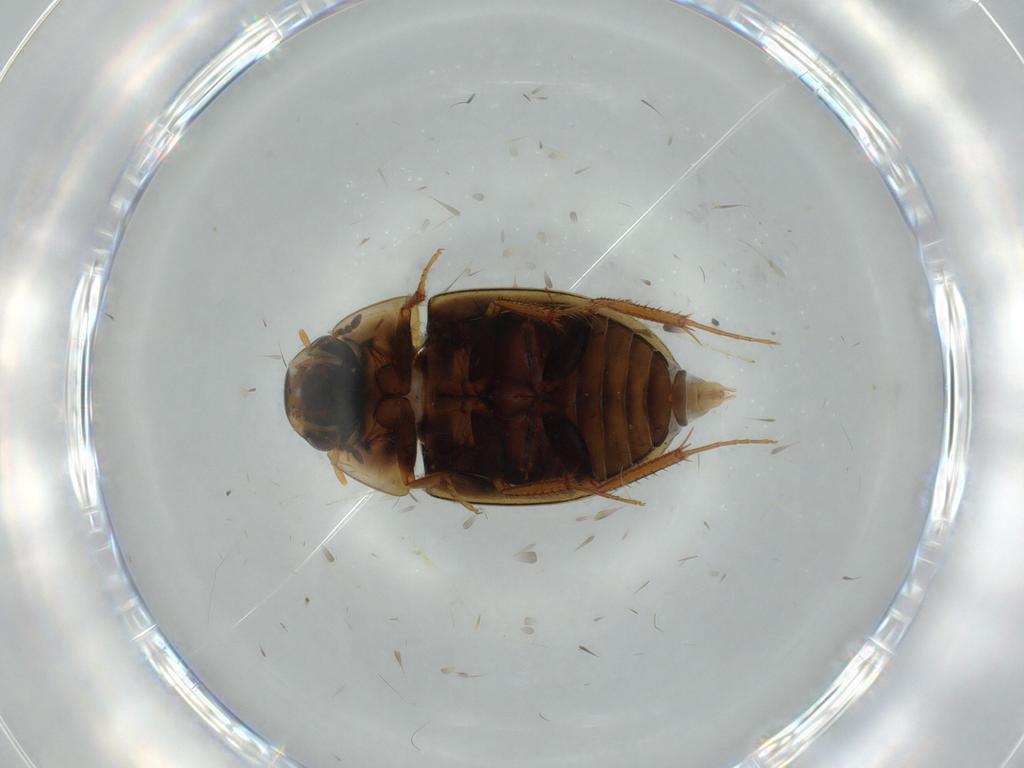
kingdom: Animalia
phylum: Arthropoda
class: Insecta
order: Coleoptera
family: Hydrophilidae
